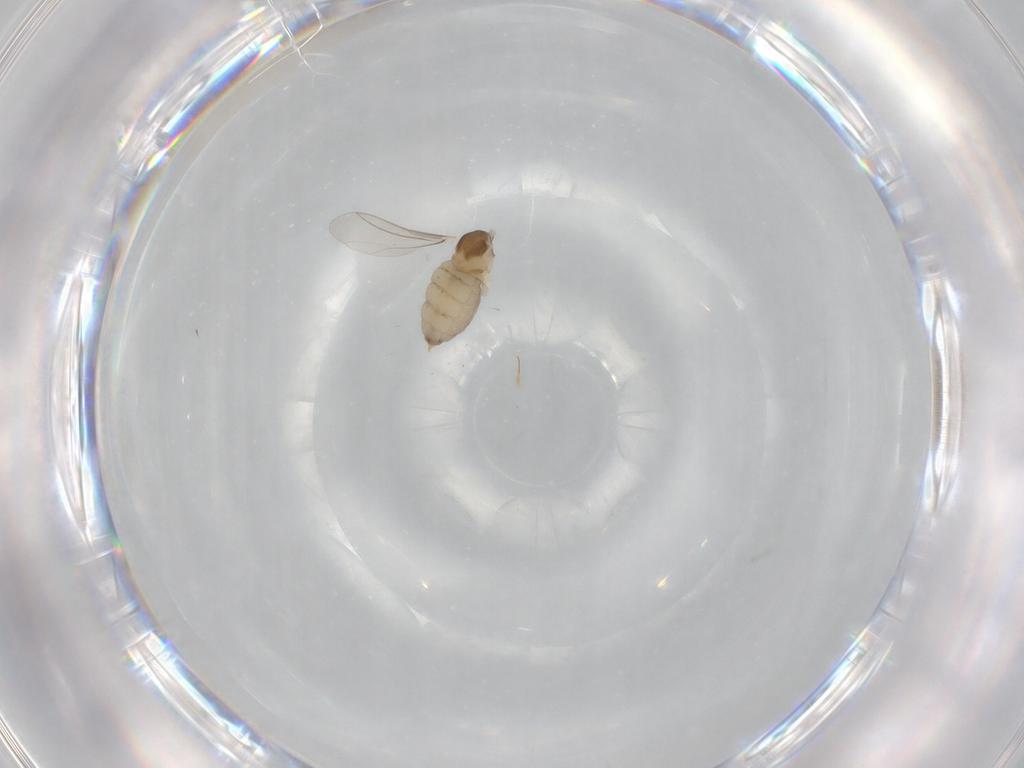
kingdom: Animalia
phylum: Arthropoda
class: Insecta
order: Diptera
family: Cecidomyiidae
